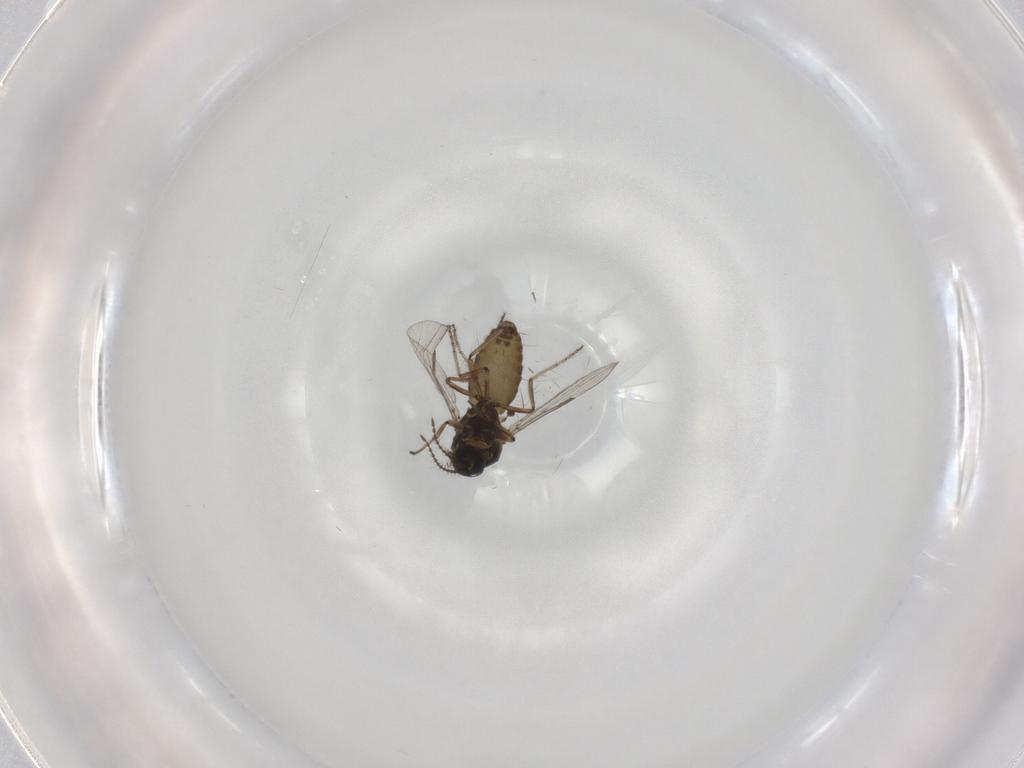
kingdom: Animalia
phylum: Arthropoda
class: Insecta
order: Diptera
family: Ceratopogonidae
